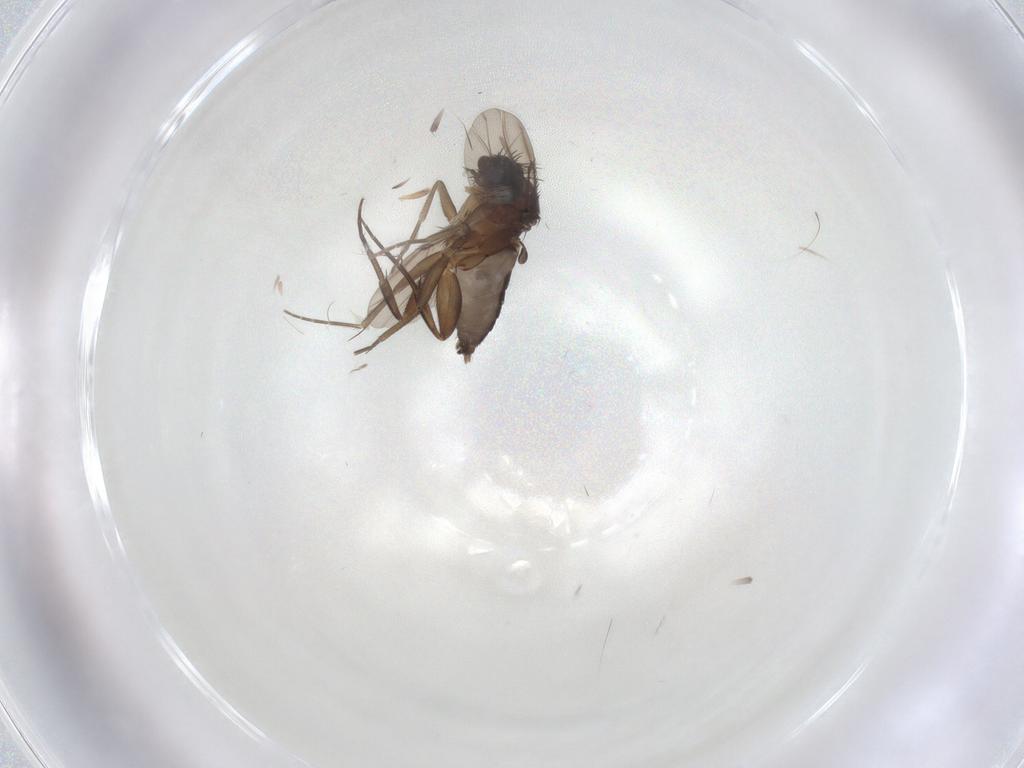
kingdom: Animalia
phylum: Arthropoda
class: Insecta
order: Diptera
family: Phoridae
